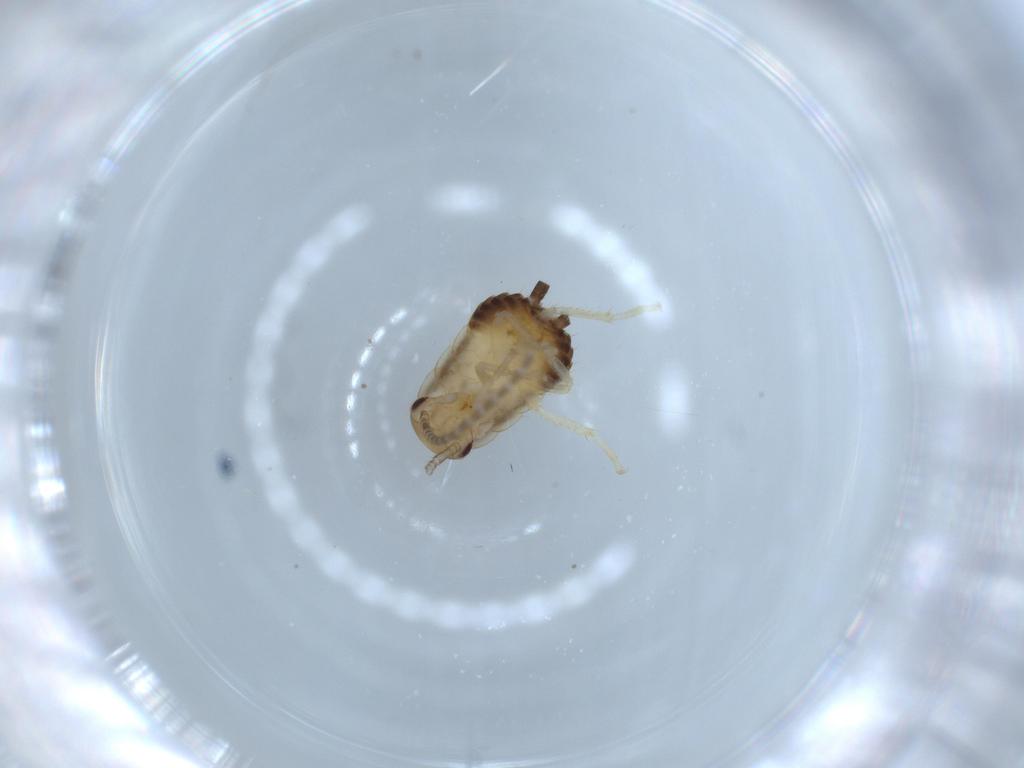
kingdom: Animalia
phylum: Arthropoda
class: Insecta
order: Blattodea
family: Ectobiidae
